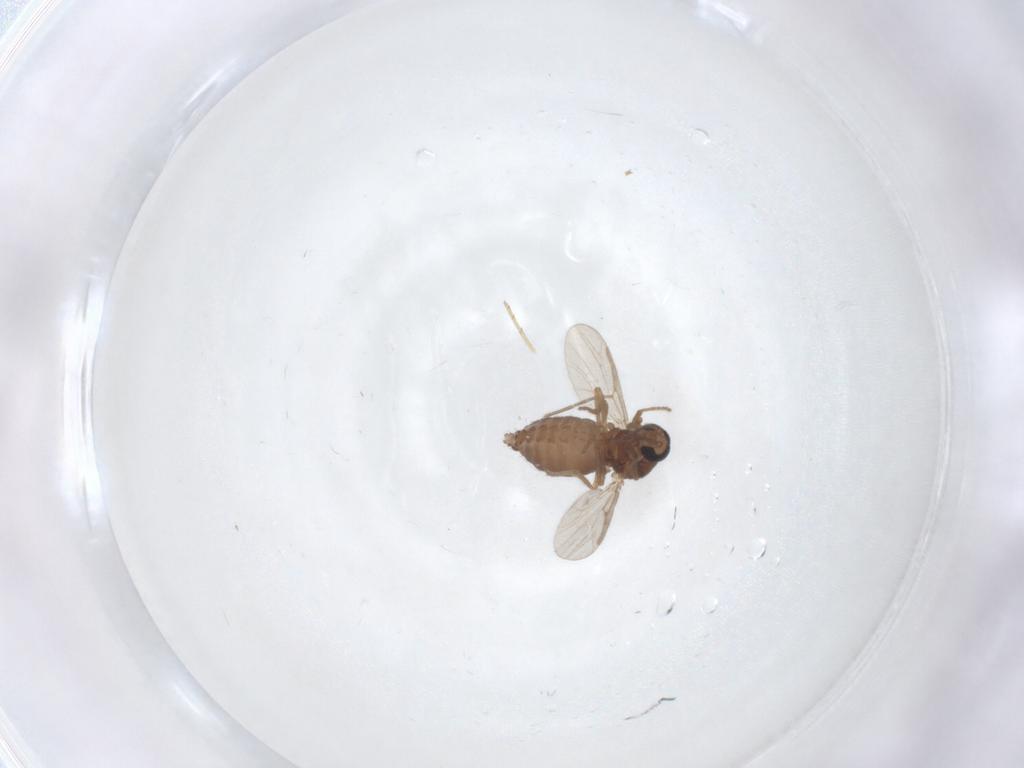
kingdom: Animalia
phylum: Arthropoda
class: Insecta
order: Diptera
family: Ceratopogonidae
